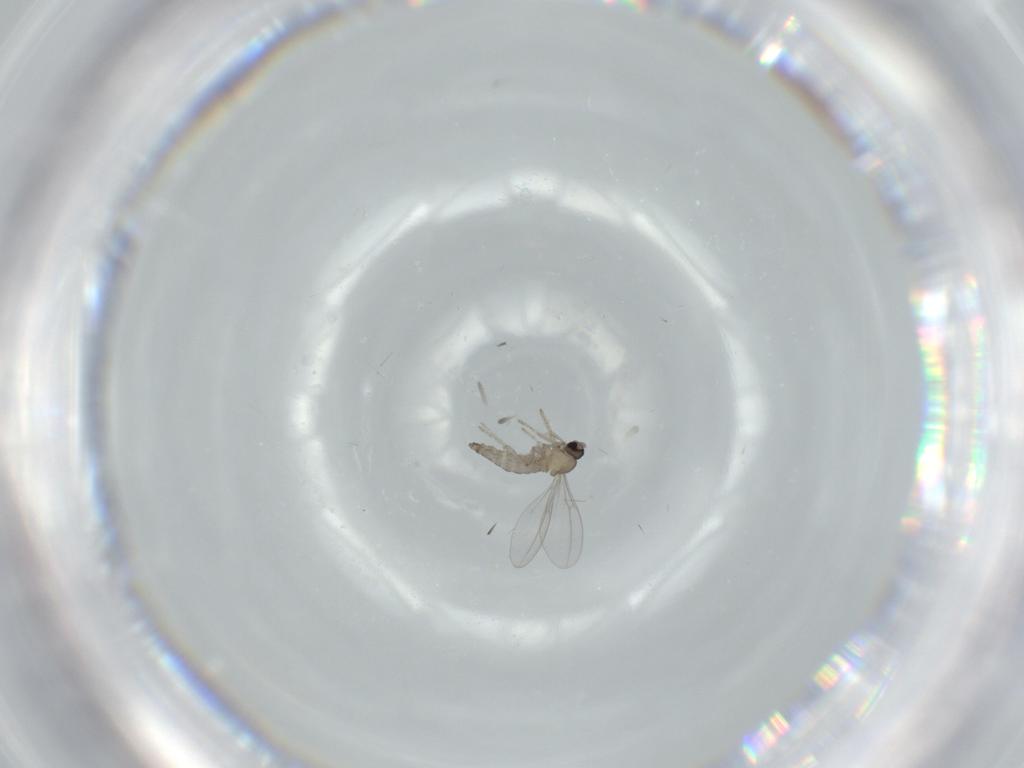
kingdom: Animalia
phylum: Arthropoda
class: Insecta
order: Diptera
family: Cecidomyiidae
